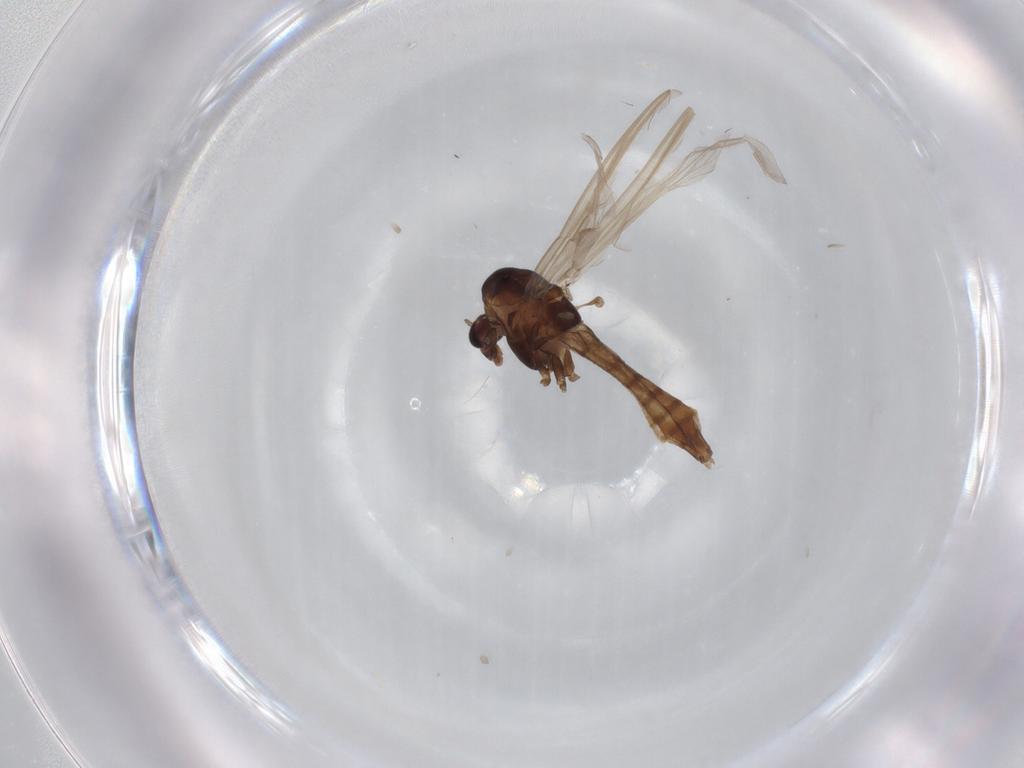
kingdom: Animalia
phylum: Arthropoda
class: Insecta
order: Diptera
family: Chironomidae
